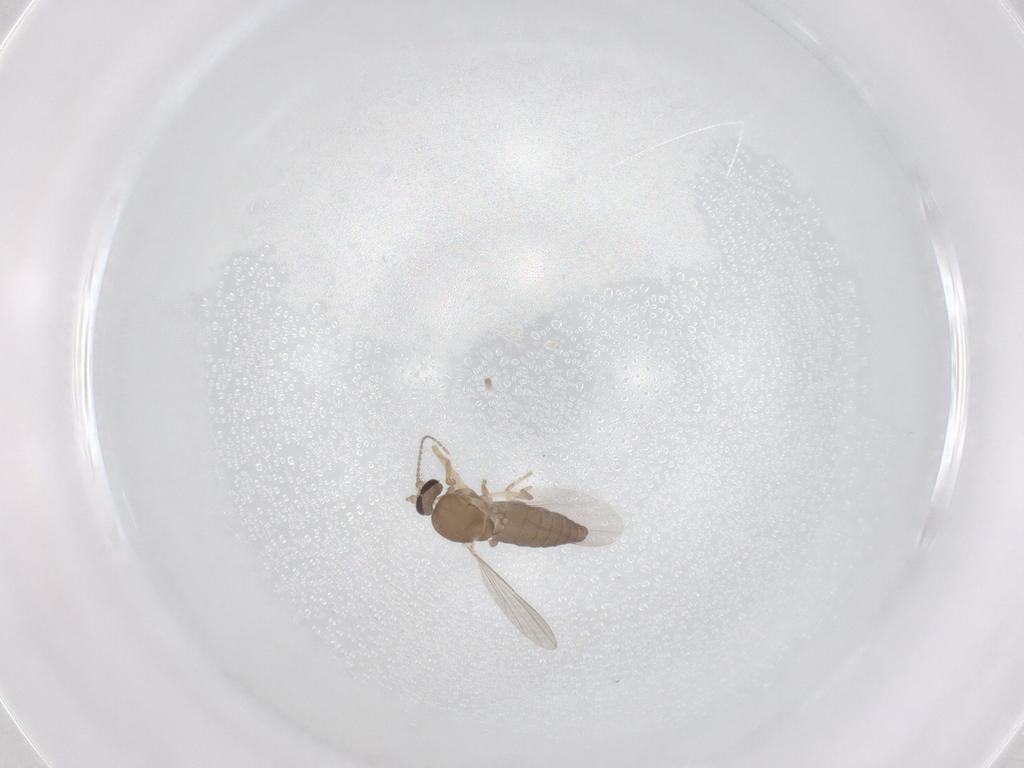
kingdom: Animalia
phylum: Arthropoda
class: Insecta
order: Diptera
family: Ceratopogonidae
